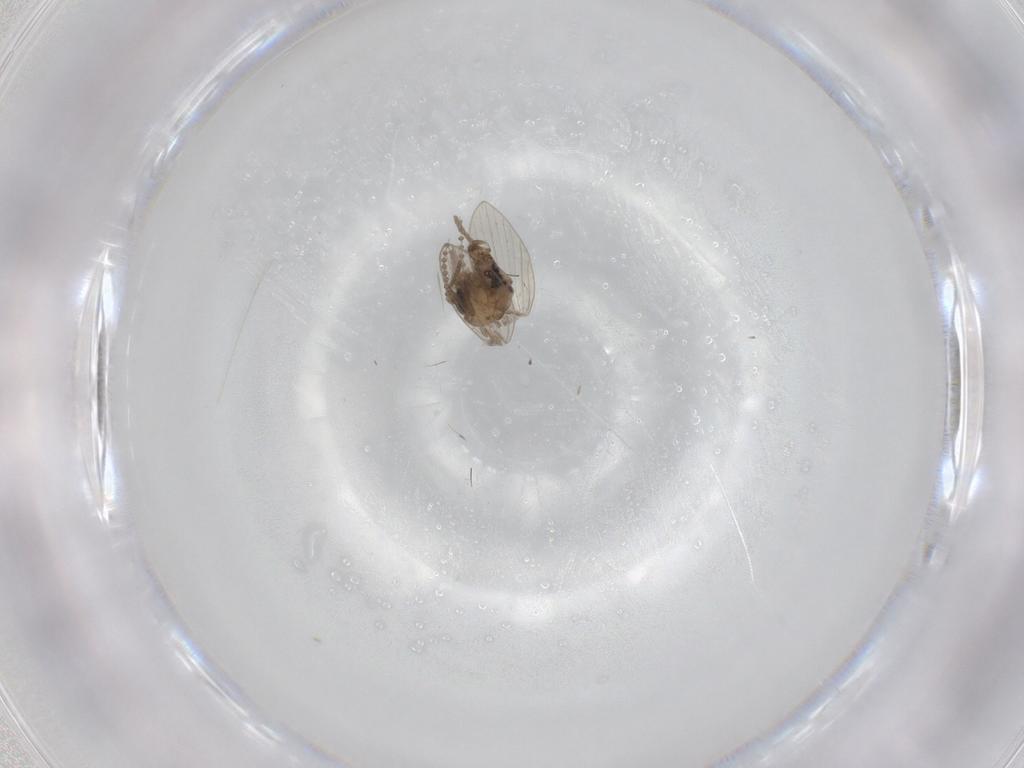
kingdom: Animalia
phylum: Arthropoda
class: Insecta
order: Diptera
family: Psychodidae
